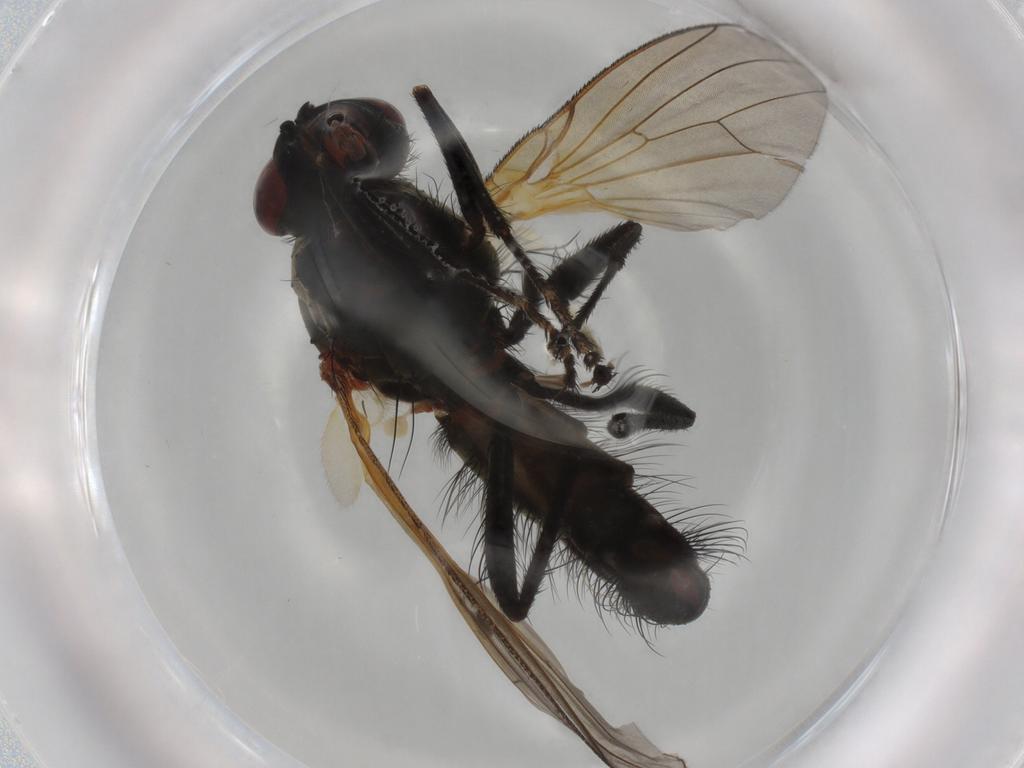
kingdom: Animalia
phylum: Arthropoda
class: Insecta
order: Diptera
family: Anthomyiidae
